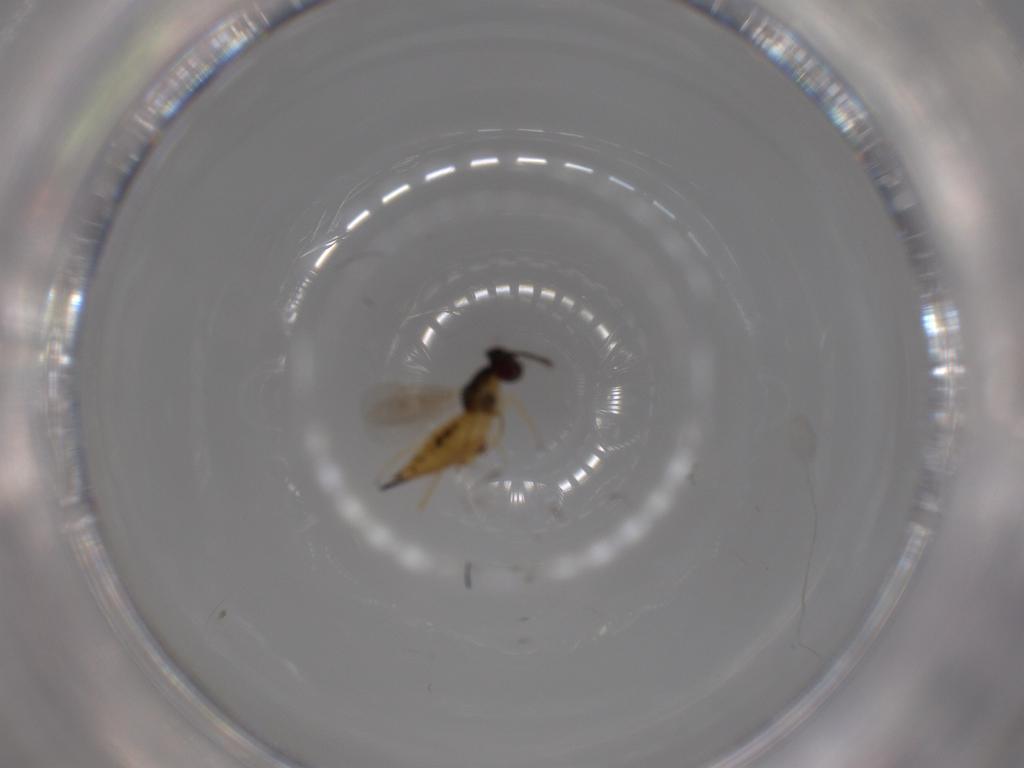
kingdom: Animalia
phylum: Arthropoda
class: Insecta
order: Hymenoptera
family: Eulophidae
